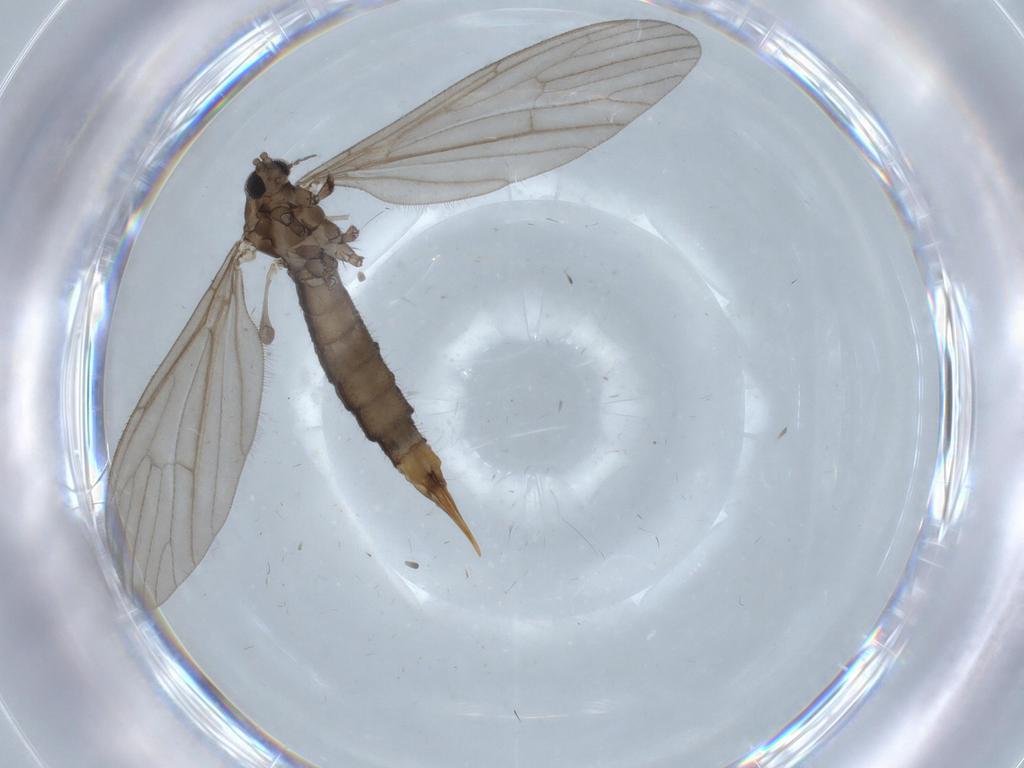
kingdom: Animalia
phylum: Arthropoda
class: Insecta
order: Diptera
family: Limoniidae
